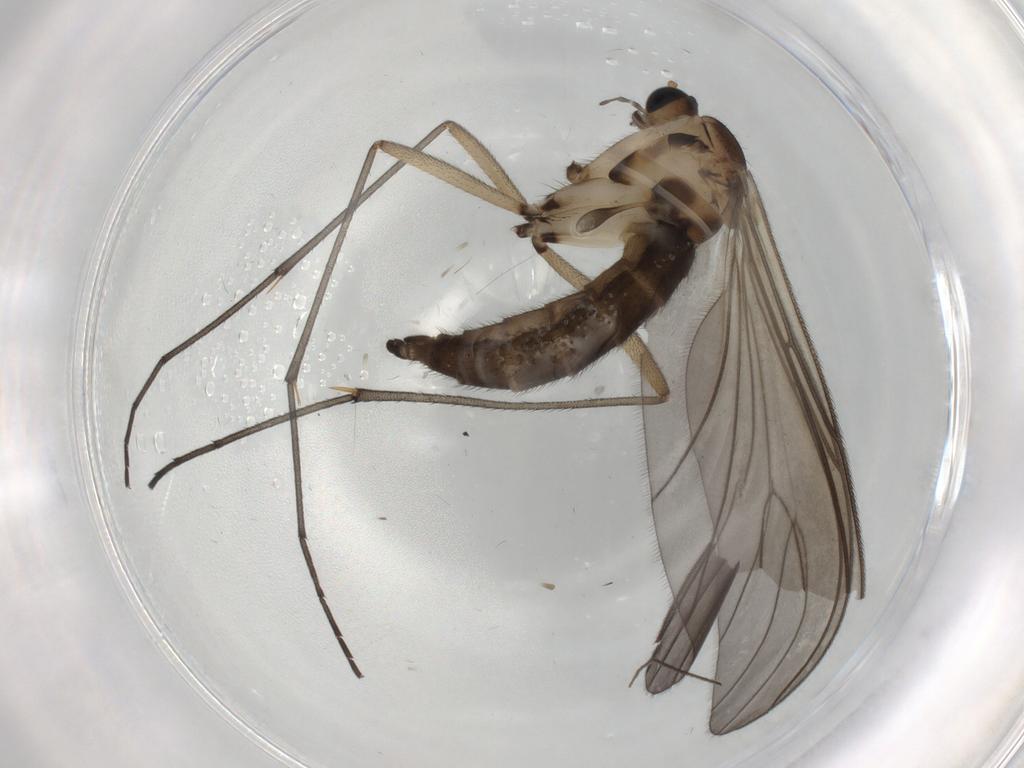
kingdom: Animalia
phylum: Arthropoda
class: Insecta
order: Diptera
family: Sciaridae
